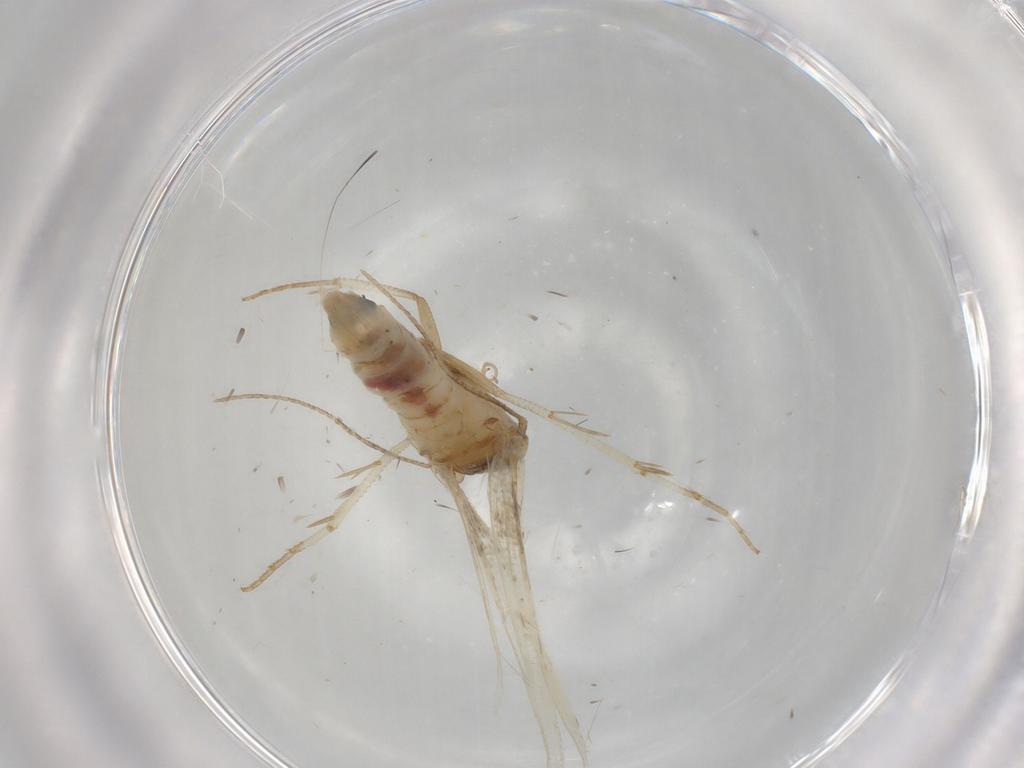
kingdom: Animalia
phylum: Arthropoda
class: Insecta
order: Lepidoptera
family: Cosmopterigidae
